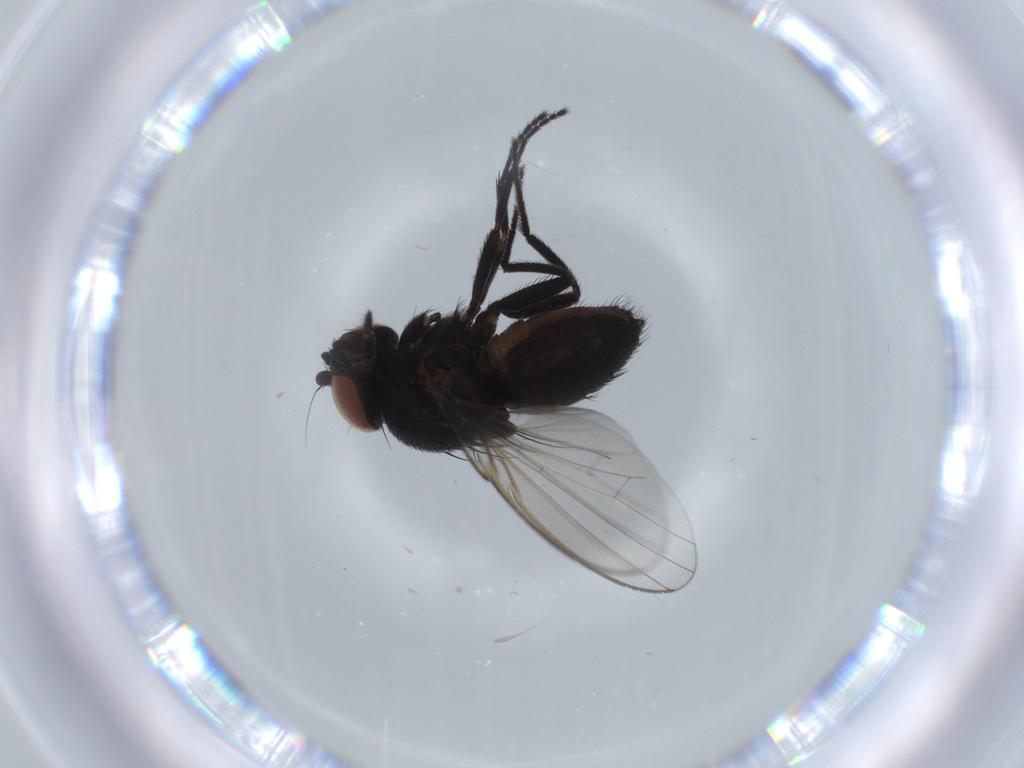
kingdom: Animalia
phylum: Arthropoda
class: Insecta
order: Diptera
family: Milichiidae
